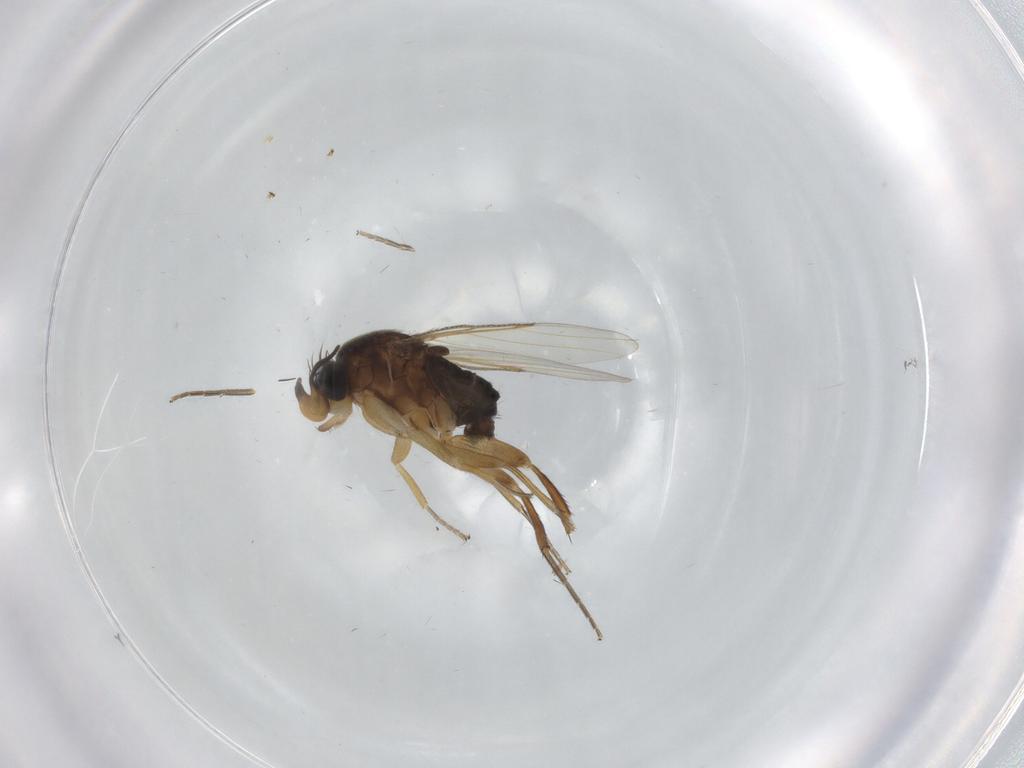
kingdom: Animalia
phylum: Arthropoda
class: Insecta
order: Diptera
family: Phoridae
